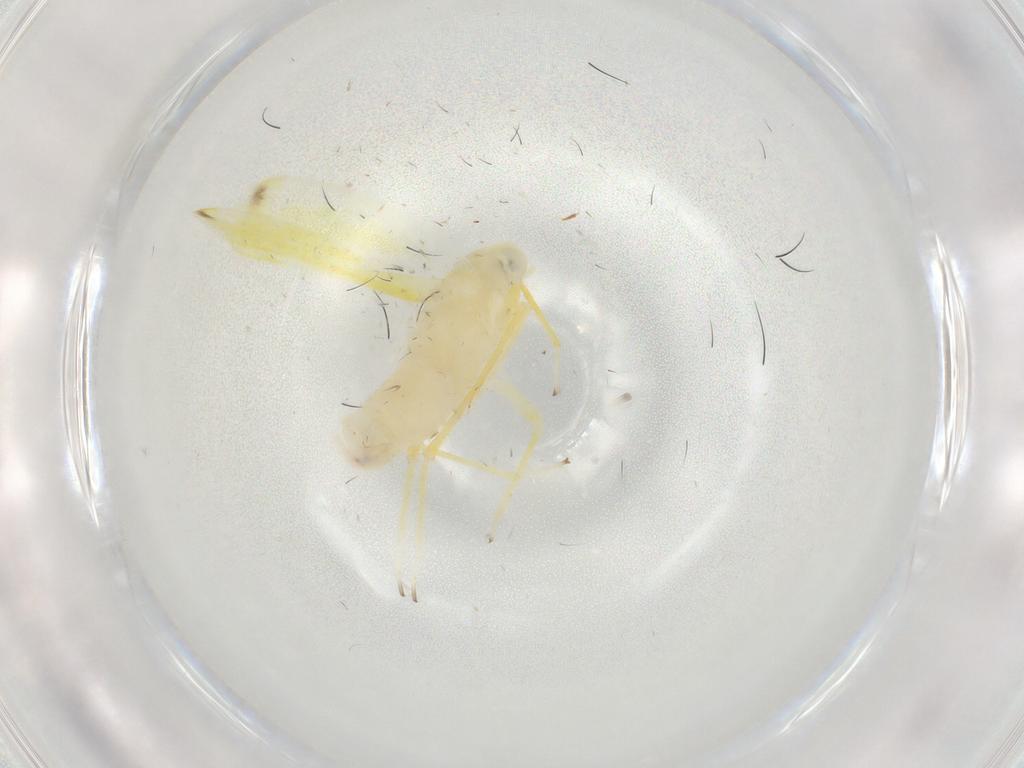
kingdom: Animalia
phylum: Arthropoda
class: Insecta
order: Hemiptera
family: Cicadellidae
